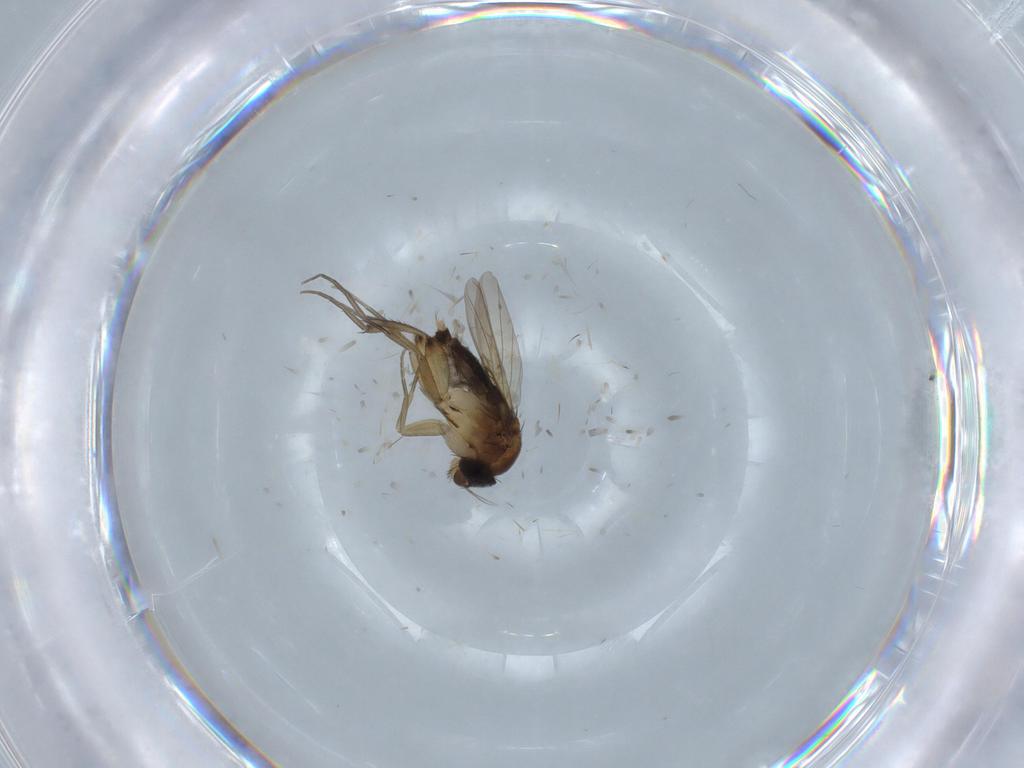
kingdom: Animalia
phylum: Arthropoda
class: Insecta
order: Diptera
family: Phoridae
